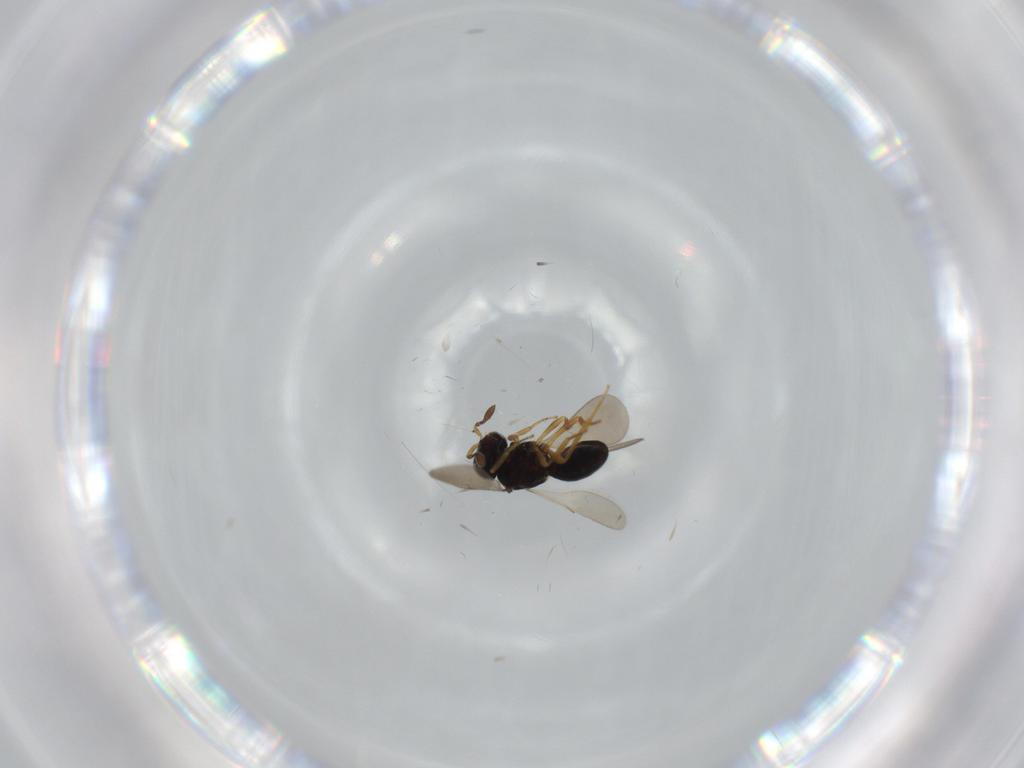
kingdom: Animalia
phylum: Arthropoda
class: Insecta
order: Hymenoptera
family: Scelionidae
